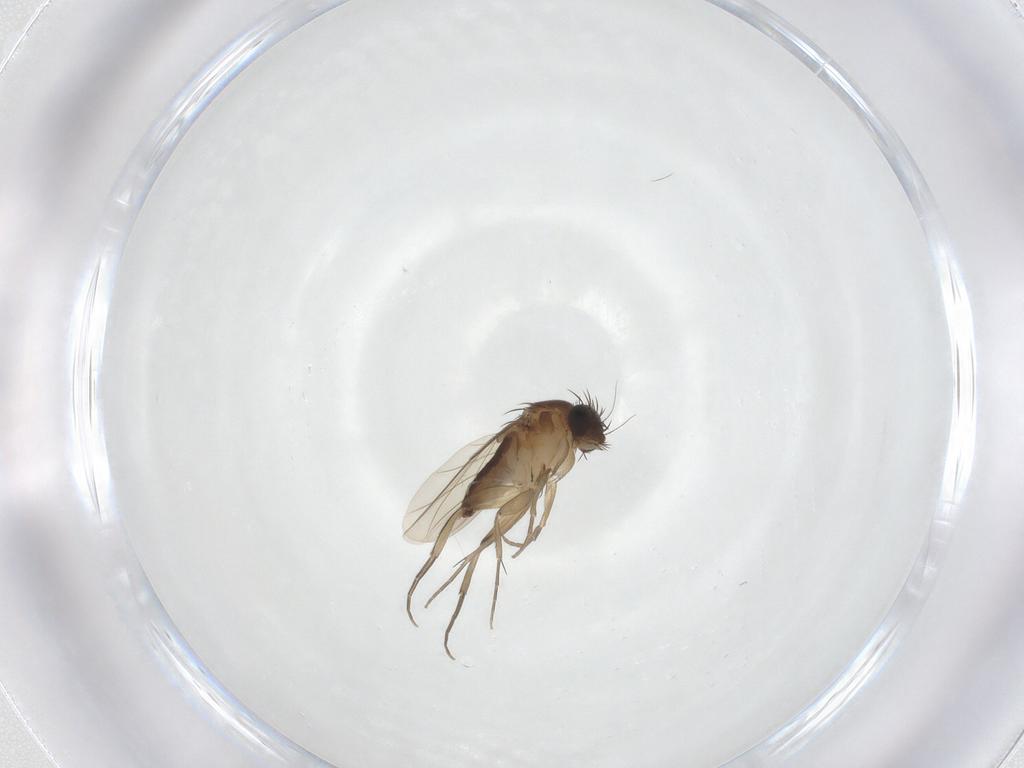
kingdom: Animalia
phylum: Arthropoda
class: Insecta
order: Diptera
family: Phoridae
